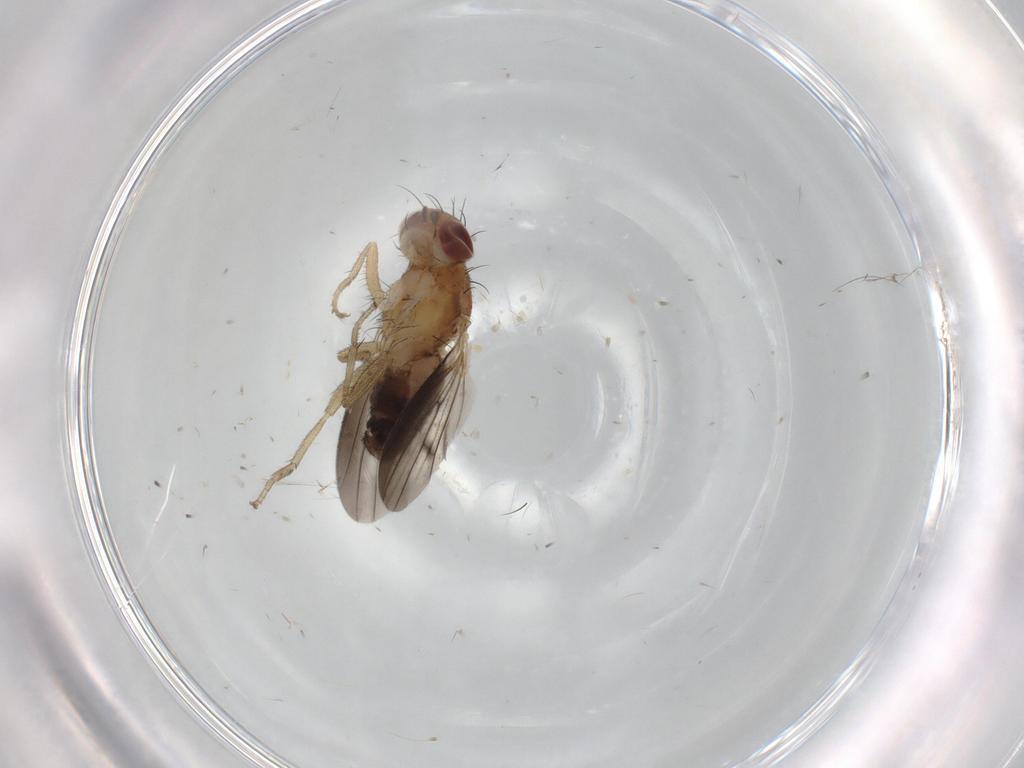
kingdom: Animalia
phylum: Arthropoda
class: Insecta
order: Diptera
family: Heleomyzidae
